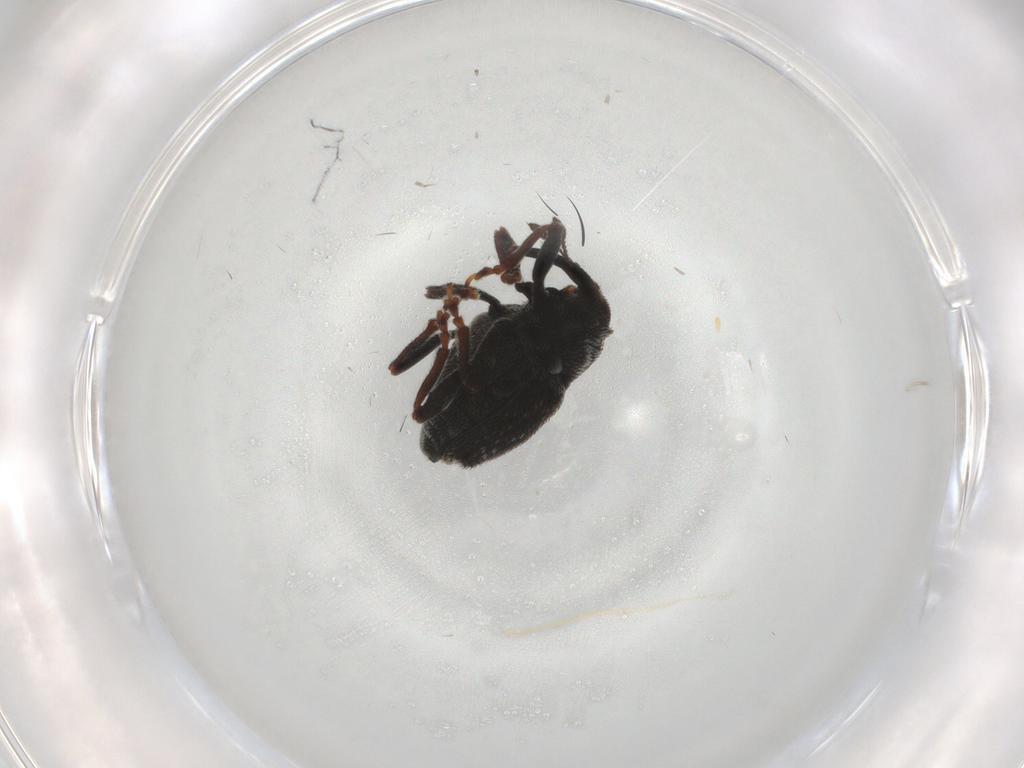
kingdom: Animalia
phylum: Arthropoda
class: Insecta
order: Coleoptera
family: Curculionidae
